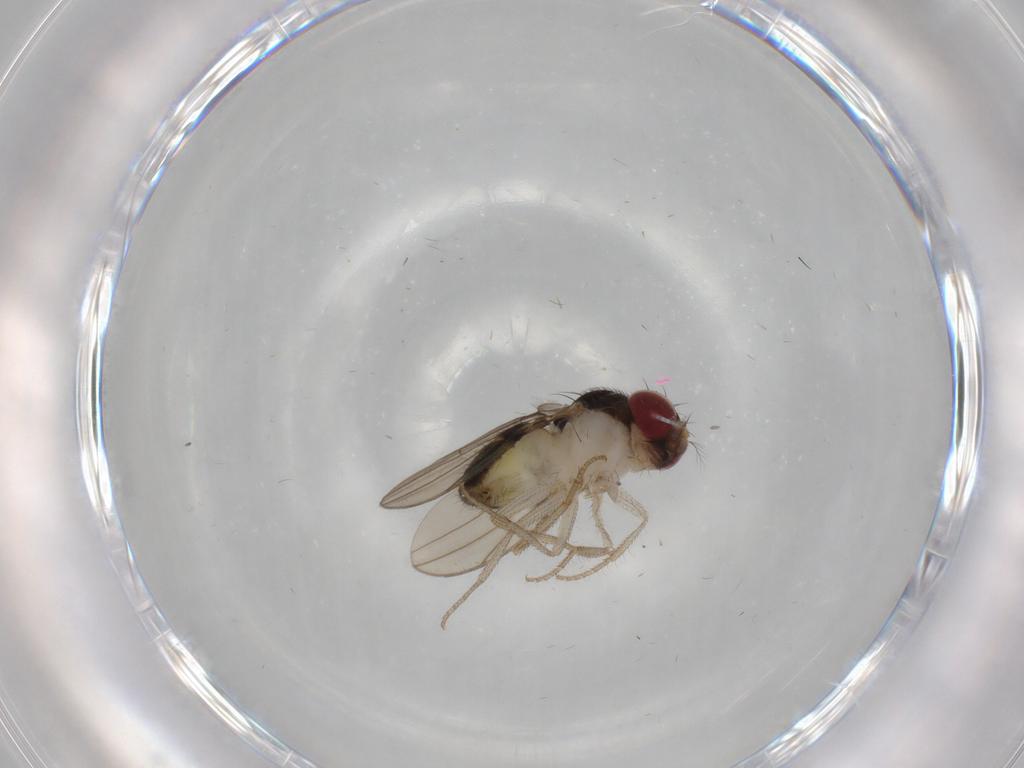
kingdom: Animalia
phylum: Arthropoda
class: Insecta
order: Diptera
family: Drosophilidae
